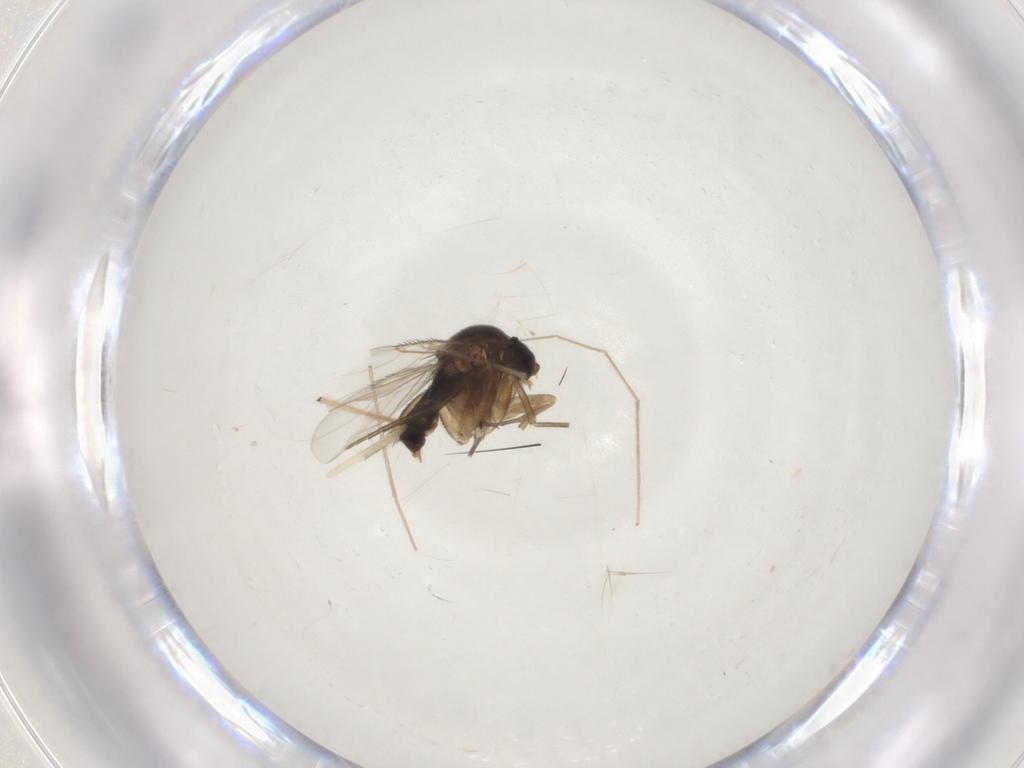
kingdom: Animalia
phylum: Arthropoda
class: Insecta
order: Diptera
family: Phoridae
